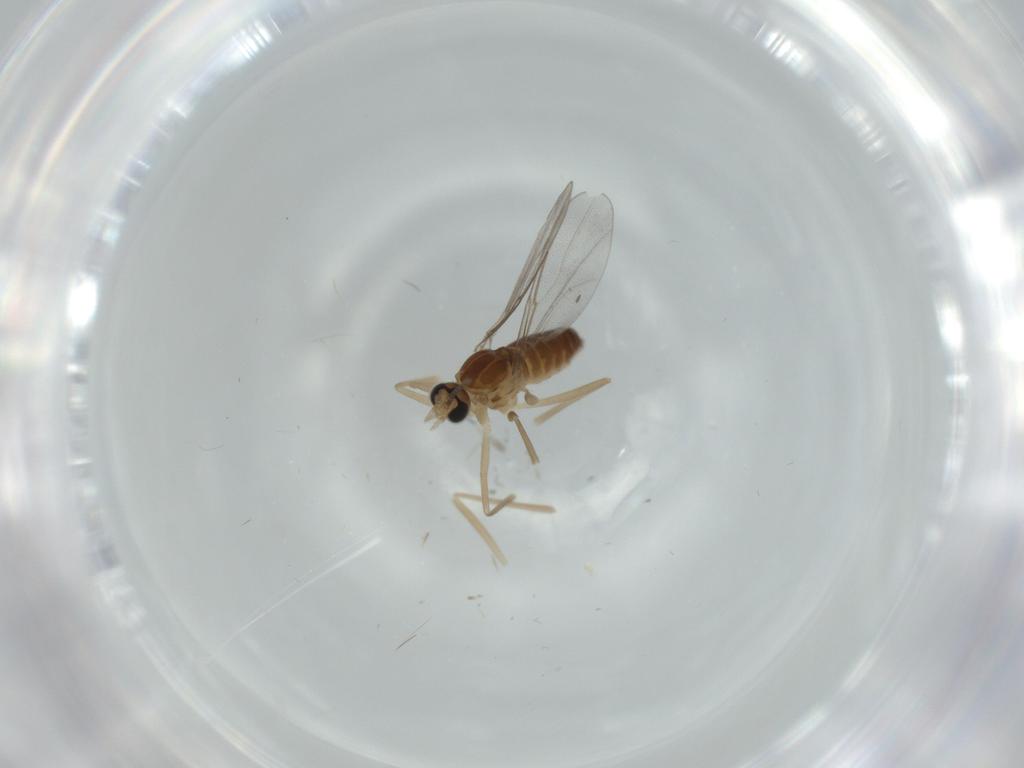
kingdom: Animalia
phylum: Arthropoda
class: Insecta
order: Diptera
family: Cecidomyiidae
